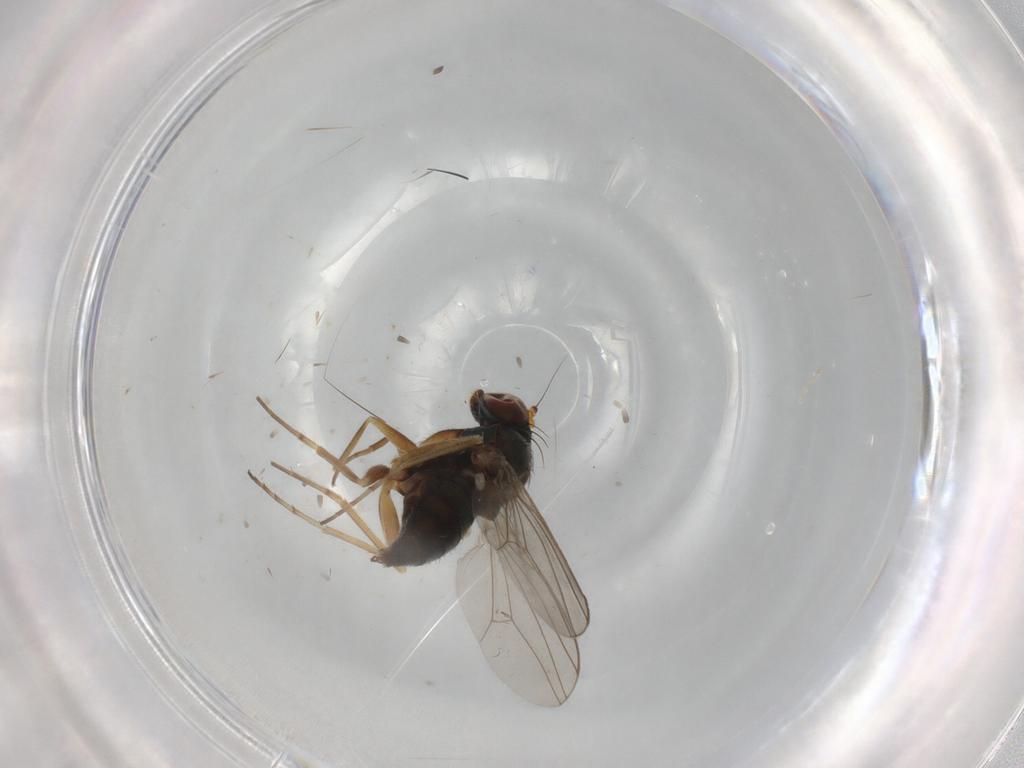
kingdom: Animalia
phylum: Arthropoda
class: Insecta
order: Diptera
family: Dolichopodidae
